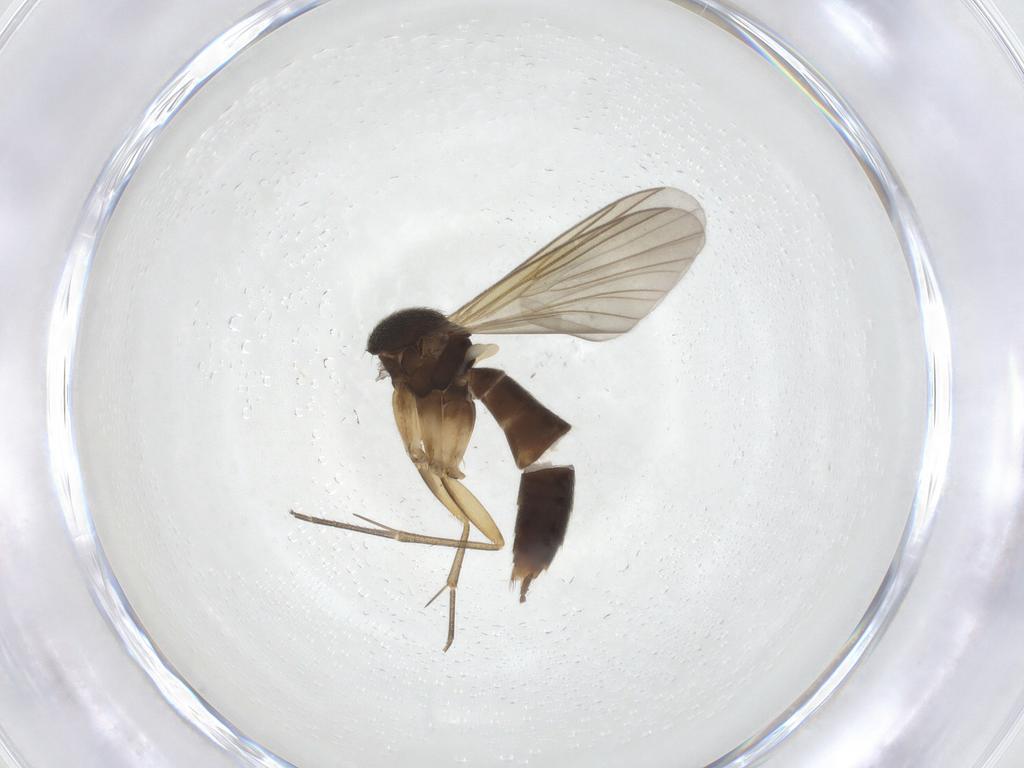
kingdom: Animalia
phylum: Arthropoda
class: Insecta
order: Diptera
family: Mycetophilidae
